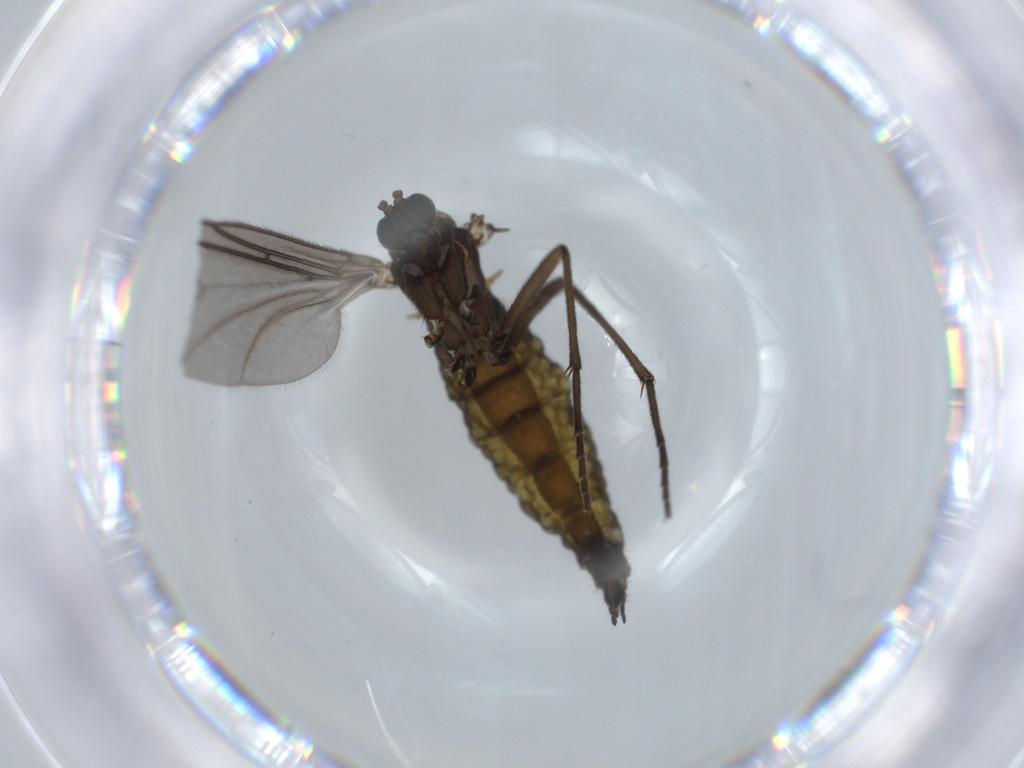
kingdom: Animalia
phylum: Arthropoda
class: Insecta
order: Diptera
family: Sciaridae
